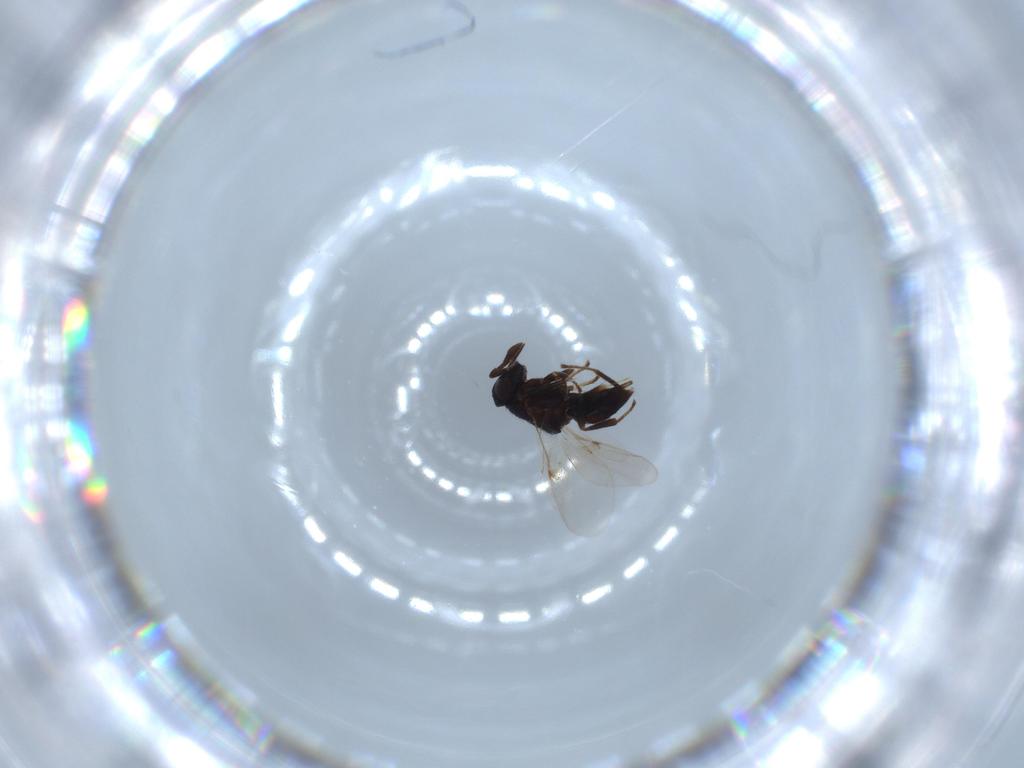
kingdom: Animalia
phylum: Arthropoda
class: Insecta
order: Hymenoptera
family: Encyrtidae
